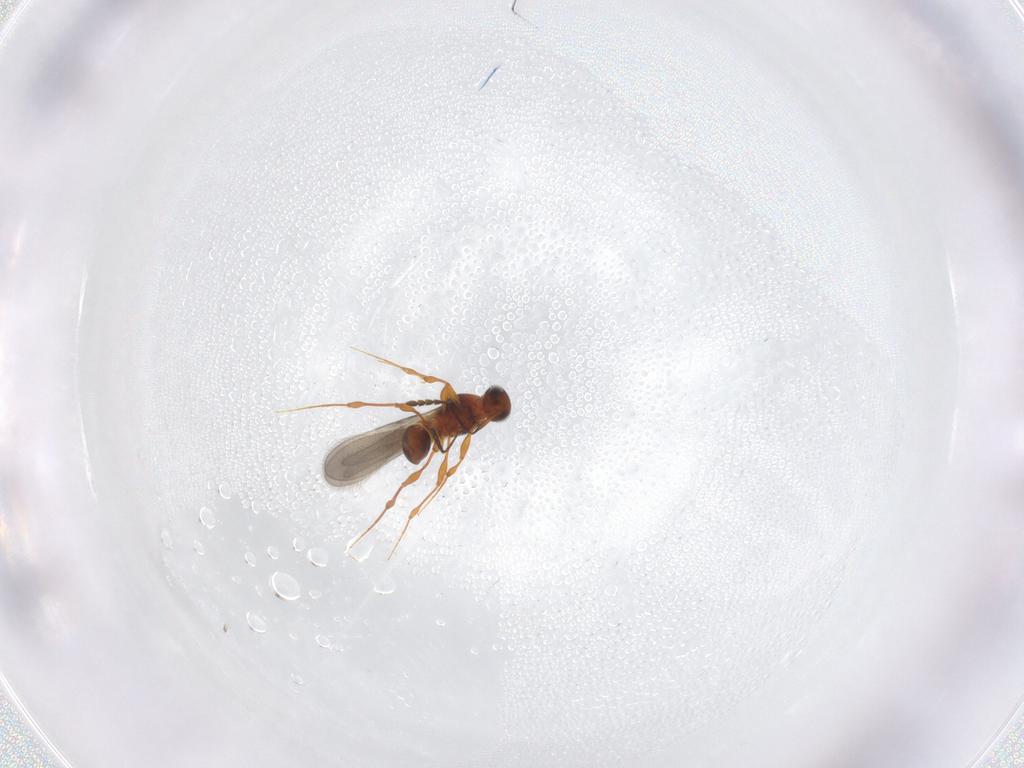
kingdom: Animalia
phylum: Arthropoda
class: Insecta
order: Hymenoptera
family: Platygastridae
